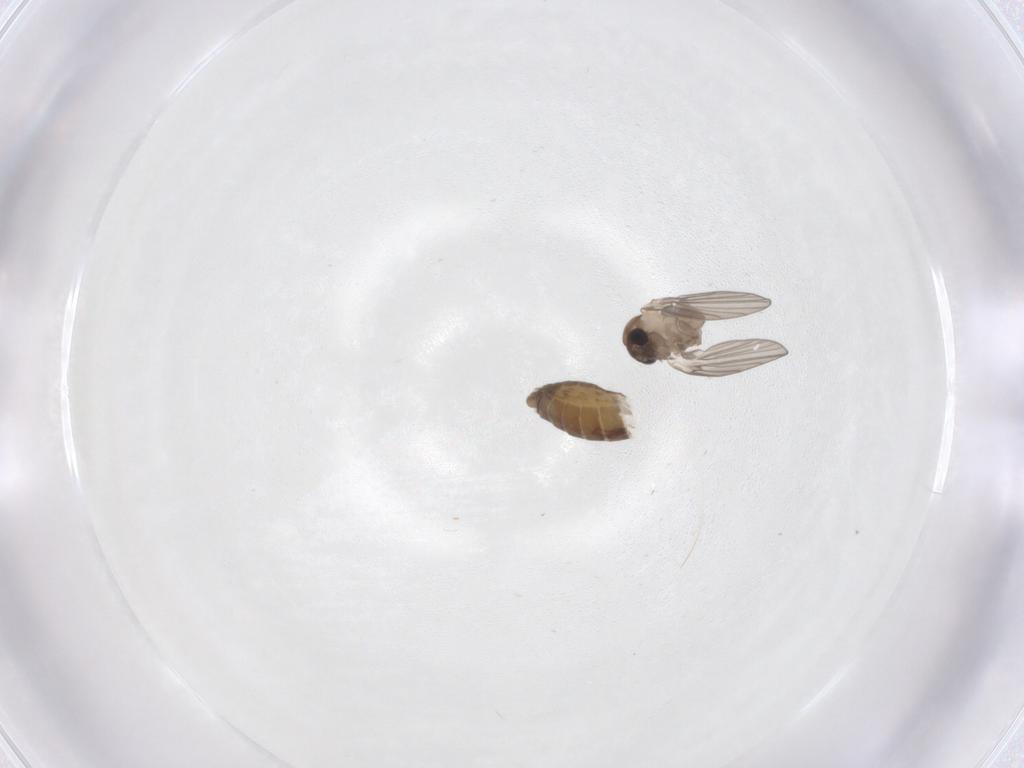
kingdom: Animalia
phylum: Arthropoda
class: Insecta
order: Diptera
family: Psychodidae
